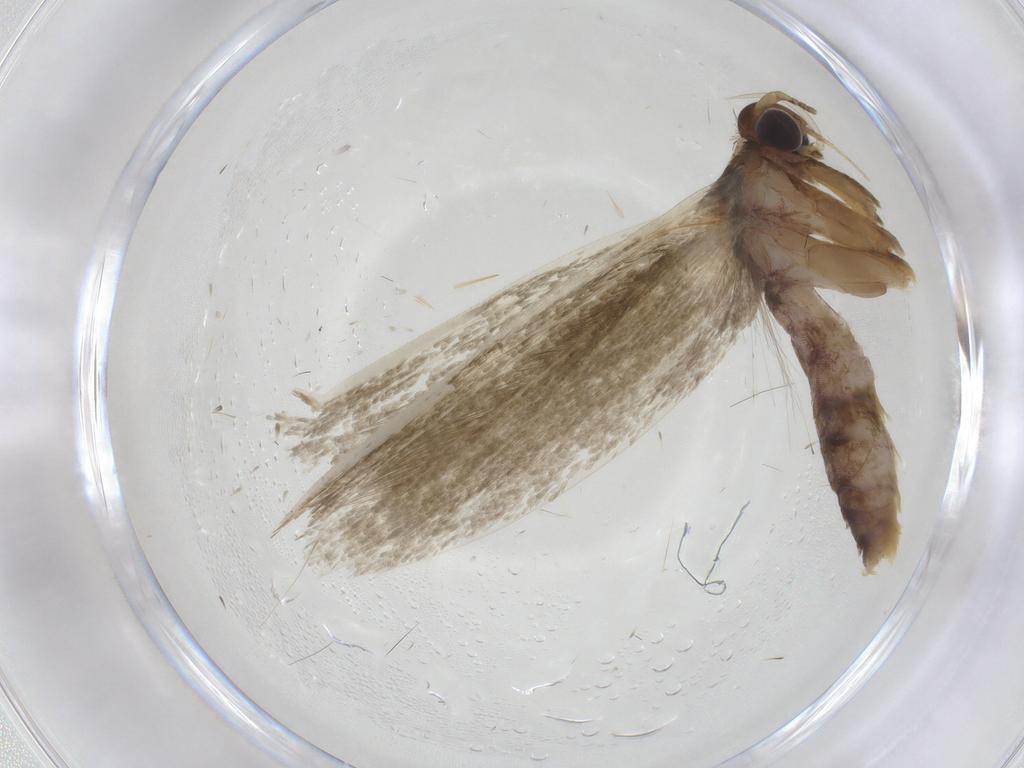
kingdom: Animalia
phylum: Arthropoda
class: Insecta
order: Lepidoptera
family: Blastobasidae
